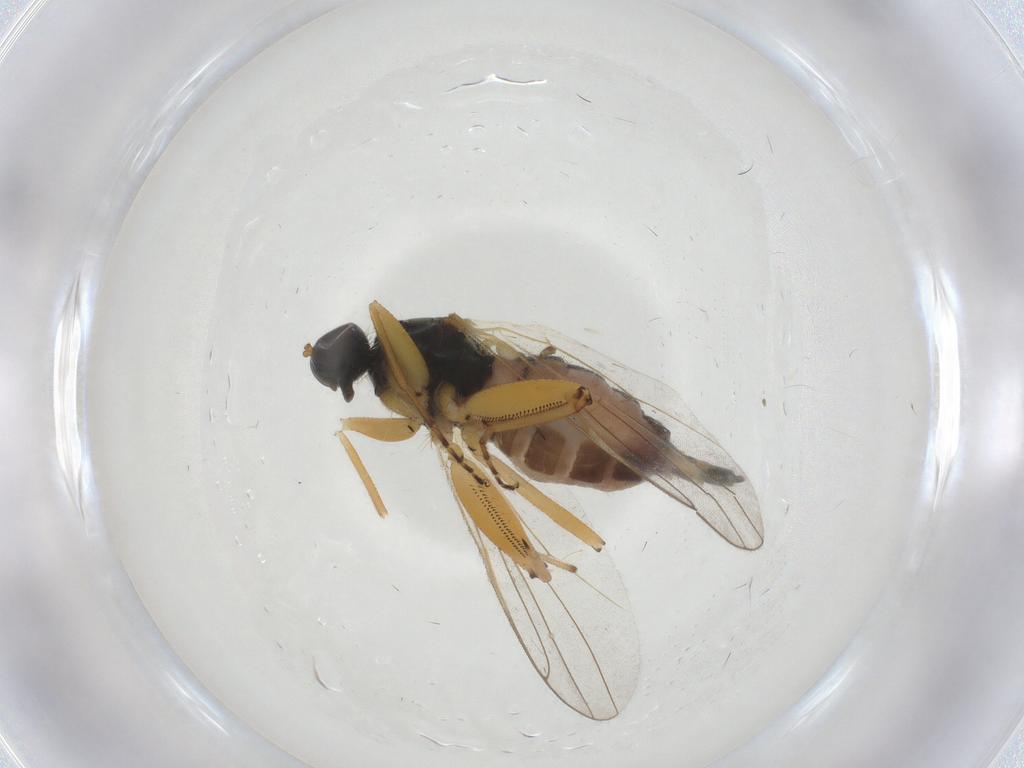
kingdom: Animalia
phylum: Arthropoda
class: Insecta
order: Diptera
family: Hybotidae
